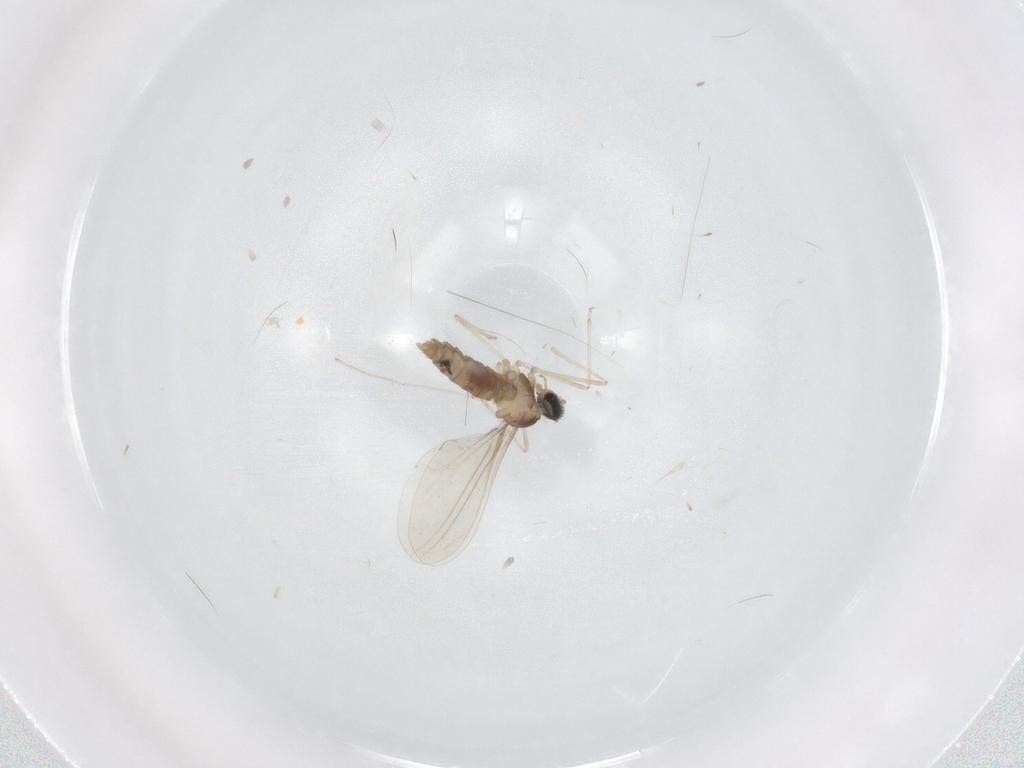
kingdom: Animalia
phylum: Arthropoda
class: Insecta
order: Diptera
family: Cecidomyiidae
